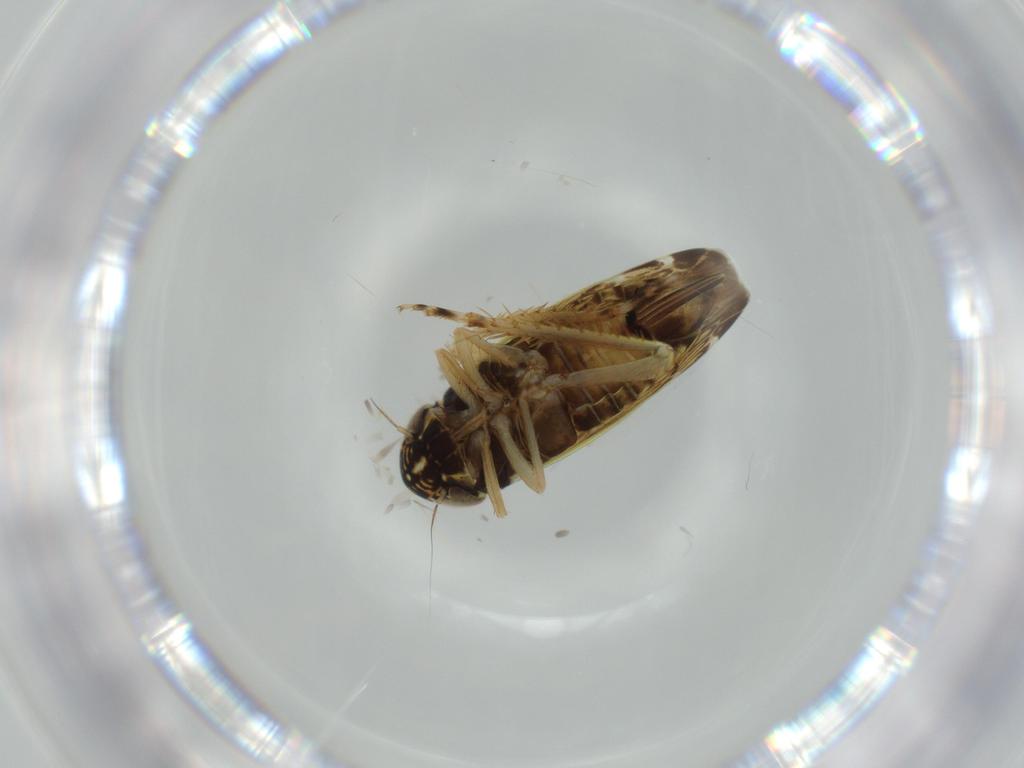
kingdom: Animalia
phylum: Arthropoda
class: Insecta
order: Hemiptera
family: Cicadellidae
